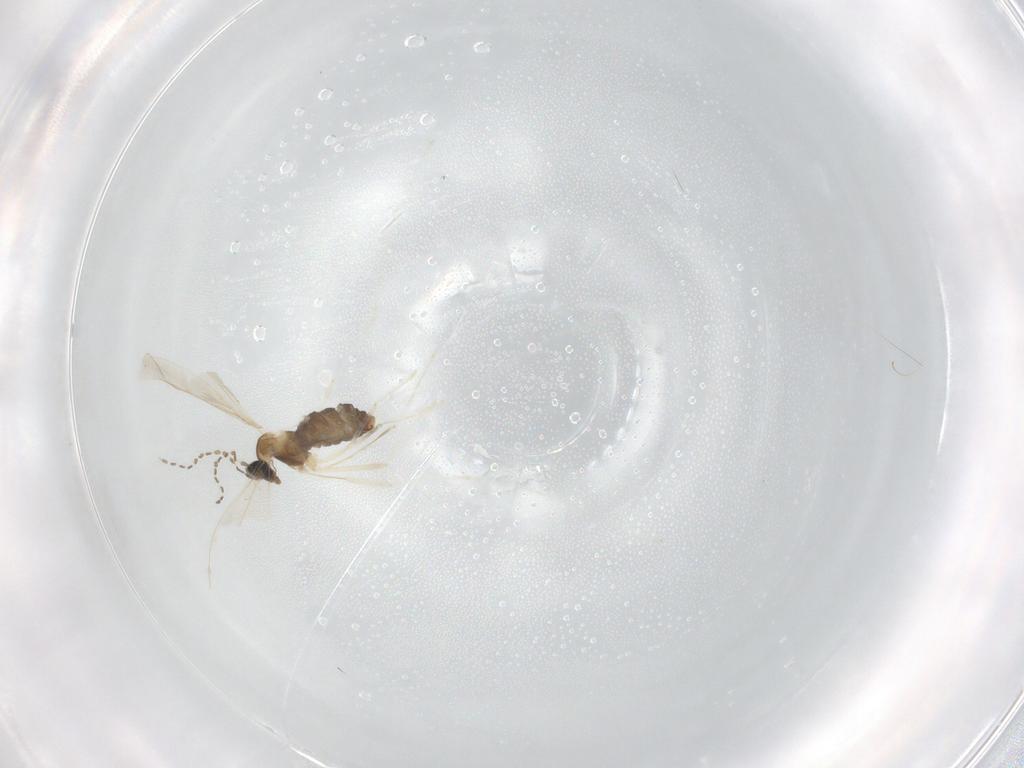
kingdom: Animalia
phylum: Arthropoda
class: Insecta
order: Diptera
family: Cecidomyiidae
